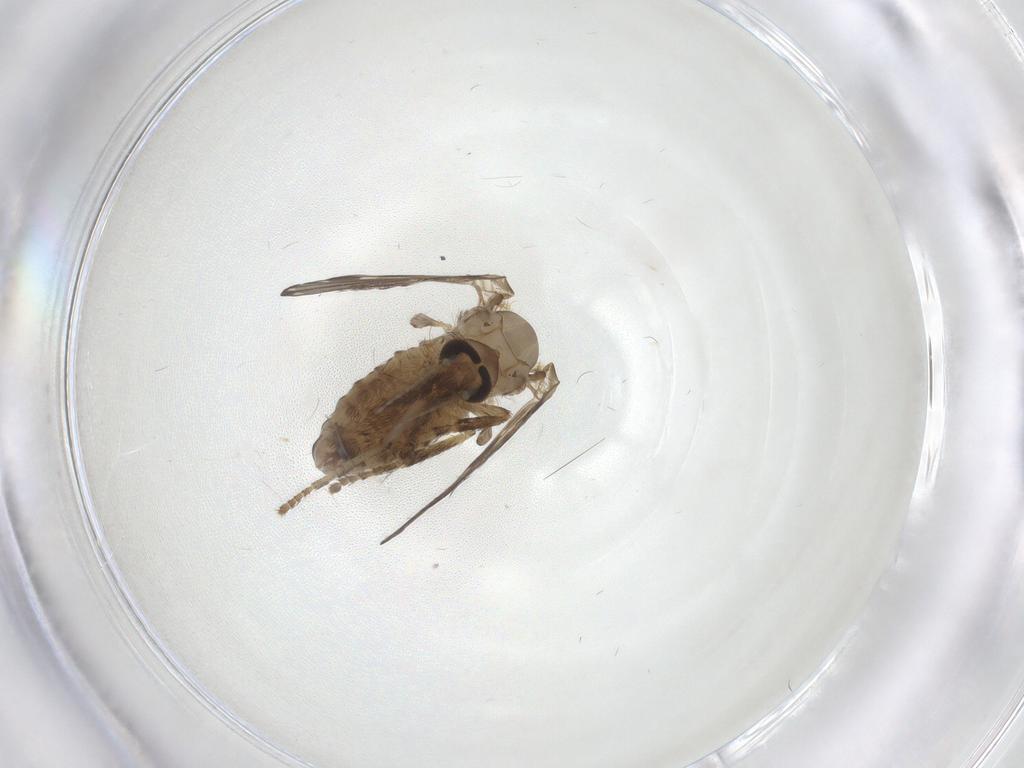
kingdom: Animalia
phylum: Arthropoda
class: Insecta
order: Diptera
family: Psychodidae
